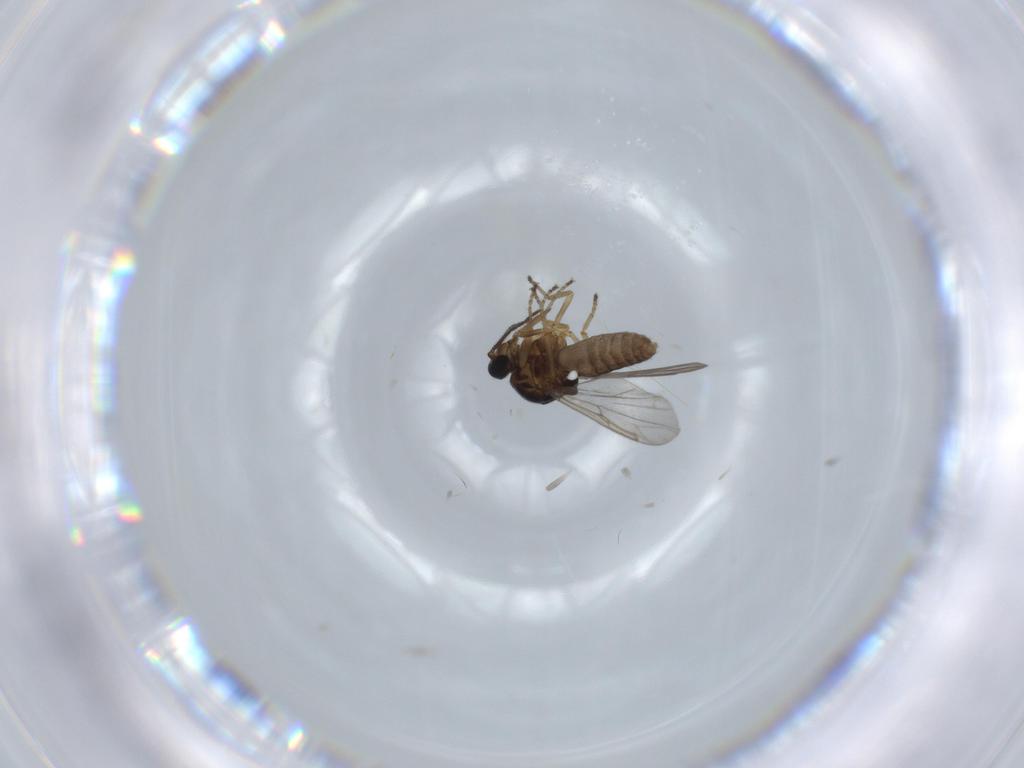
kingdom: Animalia
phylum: Arthropoda
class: Insecta
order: Diptera
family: Ceratopogonidae
